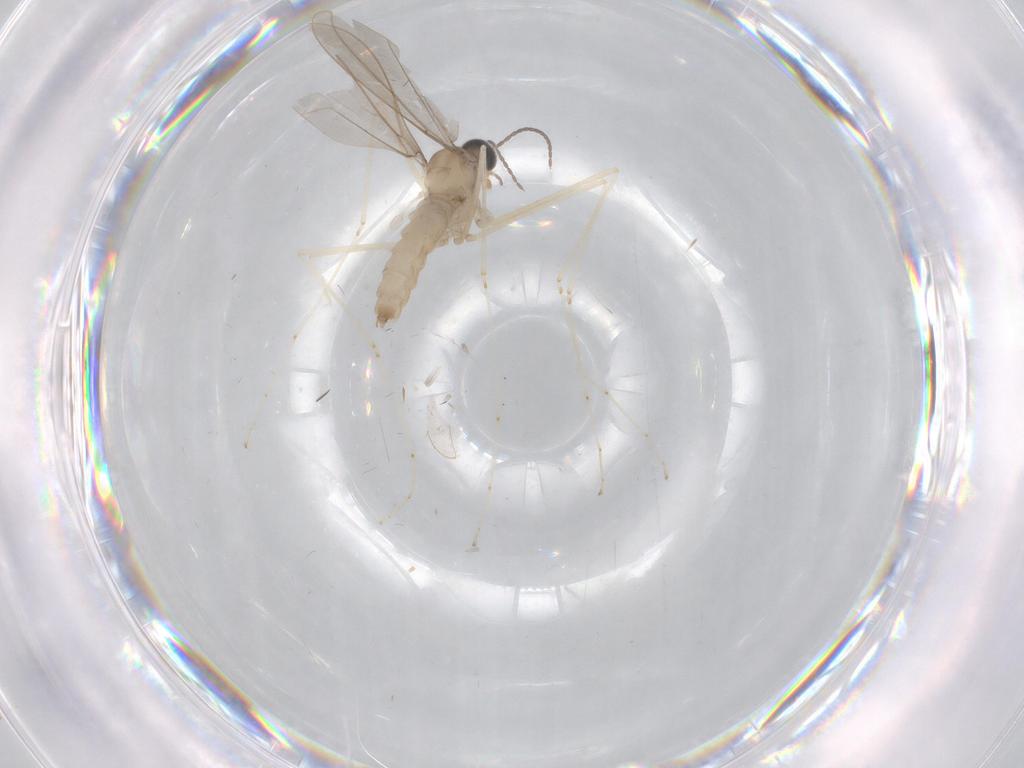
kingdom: Animalia
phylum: Arthropoda
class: Insecta
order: Diptera
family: Cecidomyiidae
